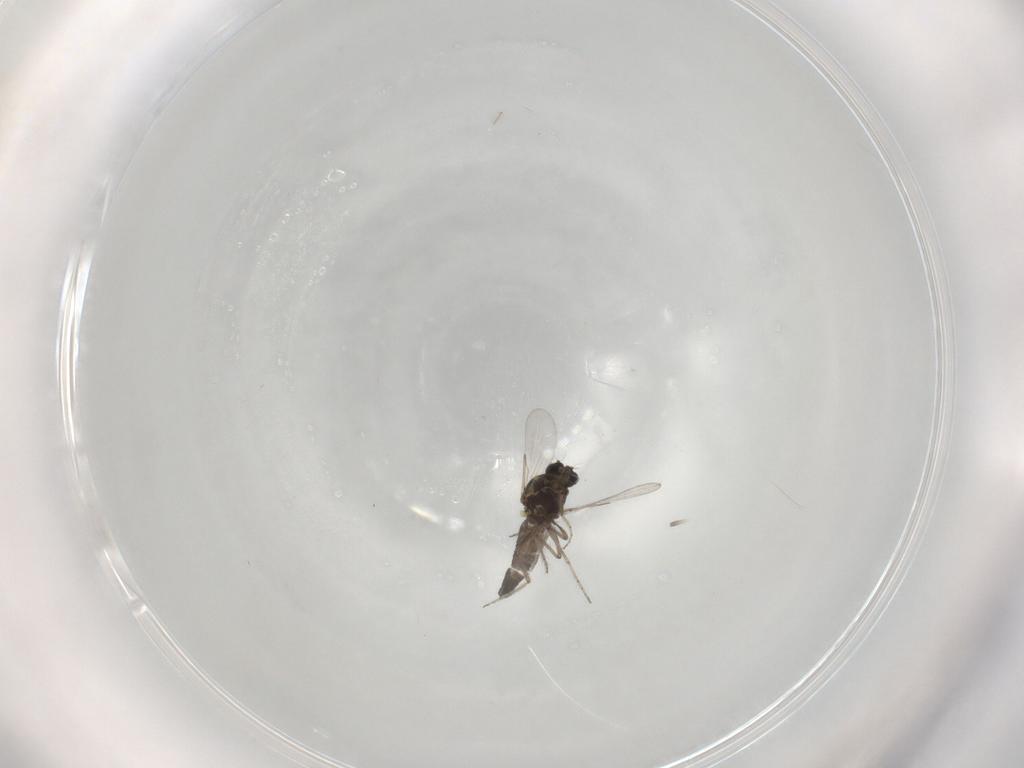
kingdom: Animalia
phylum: Arthropoda
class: Insecta
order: Diptera
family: Ceratopogonidae
